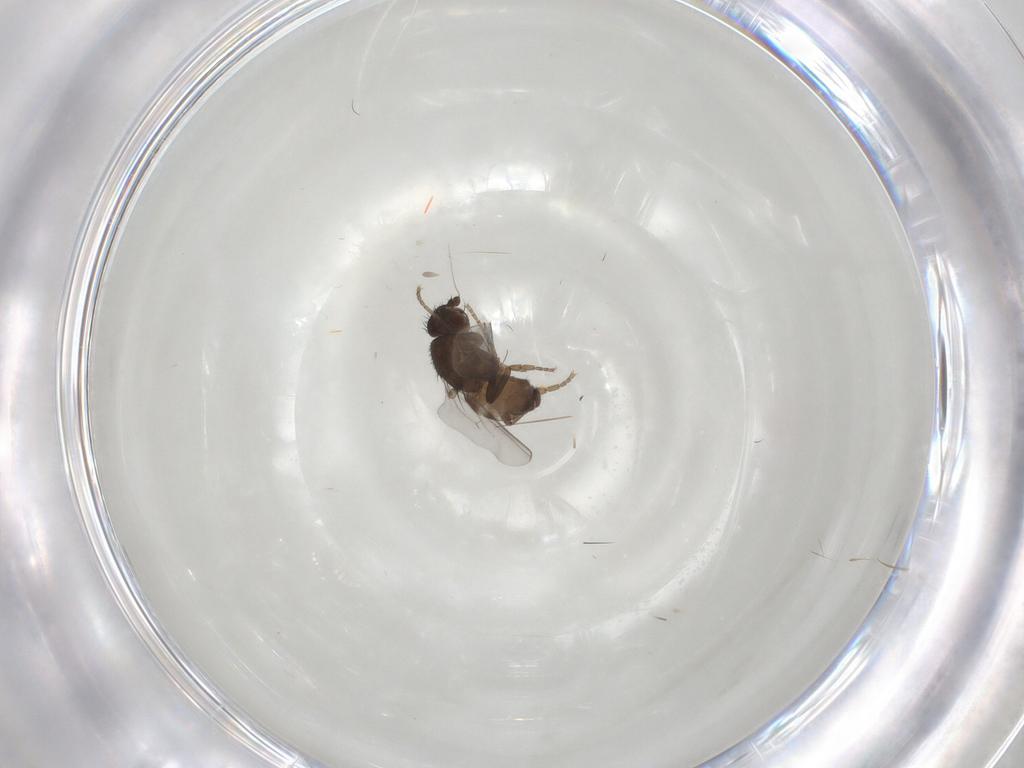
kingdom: Animalia
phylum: Arthropoda
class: Insecta
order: Diptera
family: Sphaeroceridae
